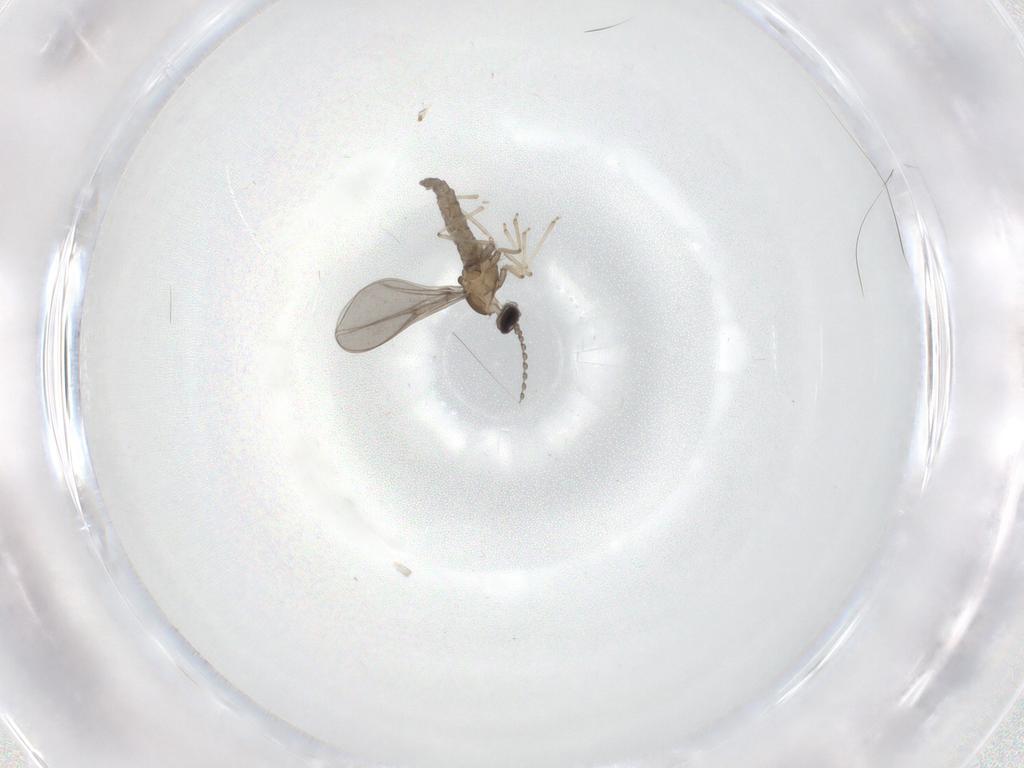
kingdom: Animalia
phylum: Arthropoda
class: Insecta
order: Diptera
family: Cecidomyiidae
